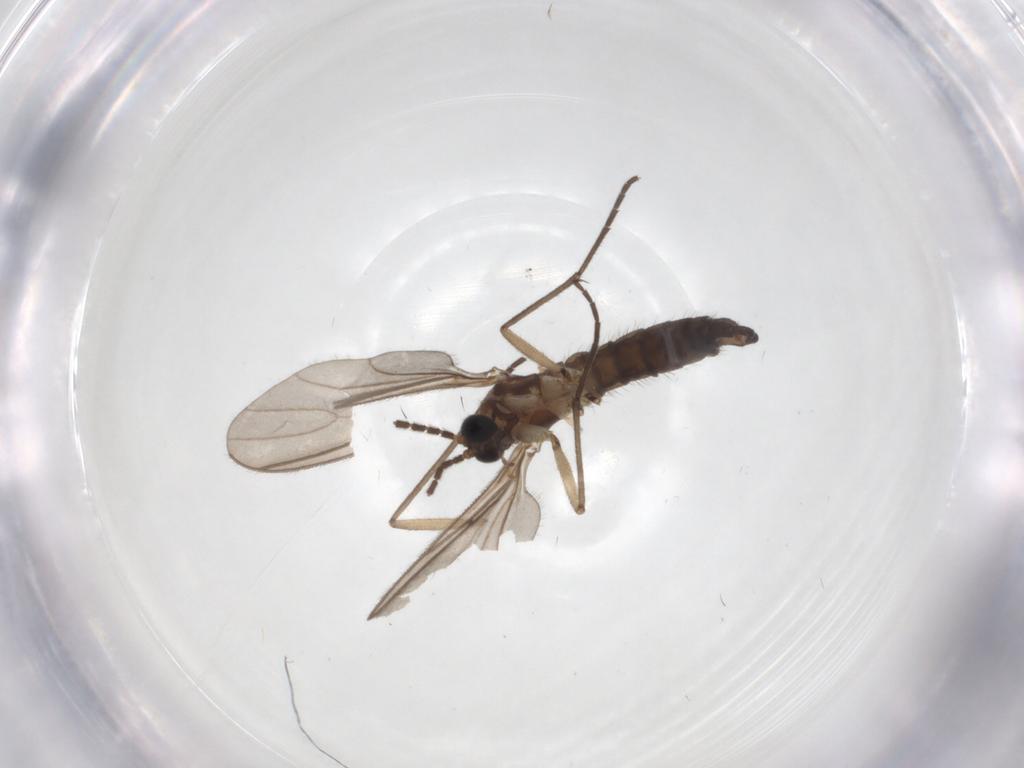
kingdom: Animalia
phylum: Arthropoda
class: Insecta
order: Diptera
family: Sciaridae
